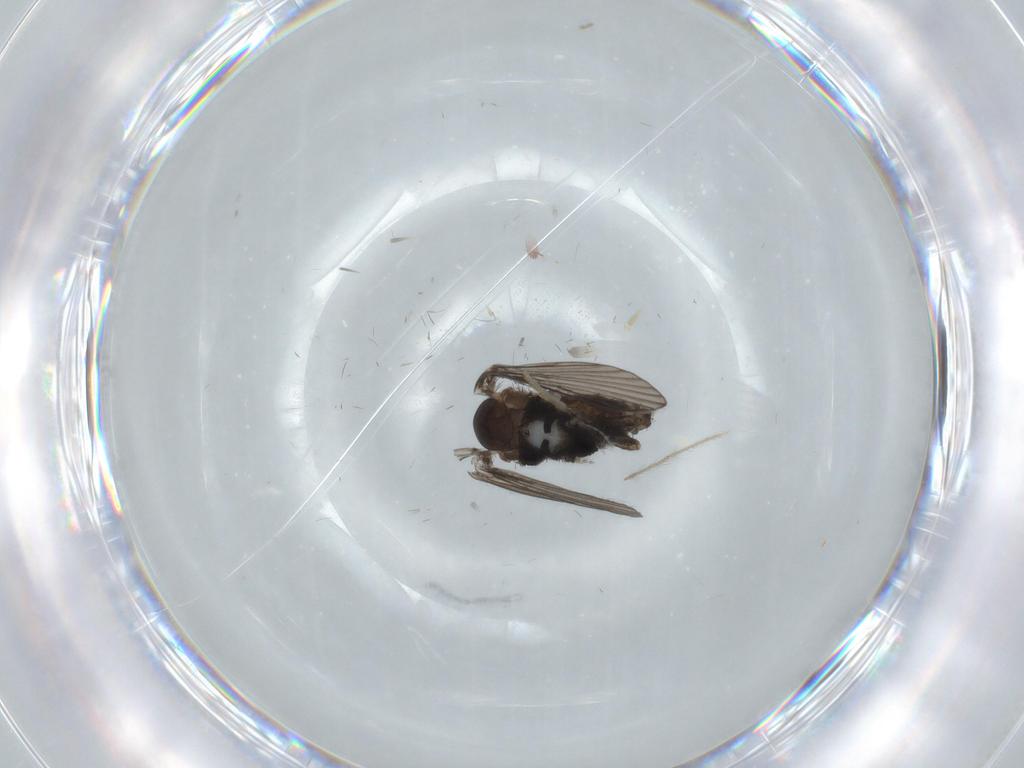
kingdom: Animalia
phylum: Arthropoda
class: Insecta
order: Diptera
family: Psychodidae
